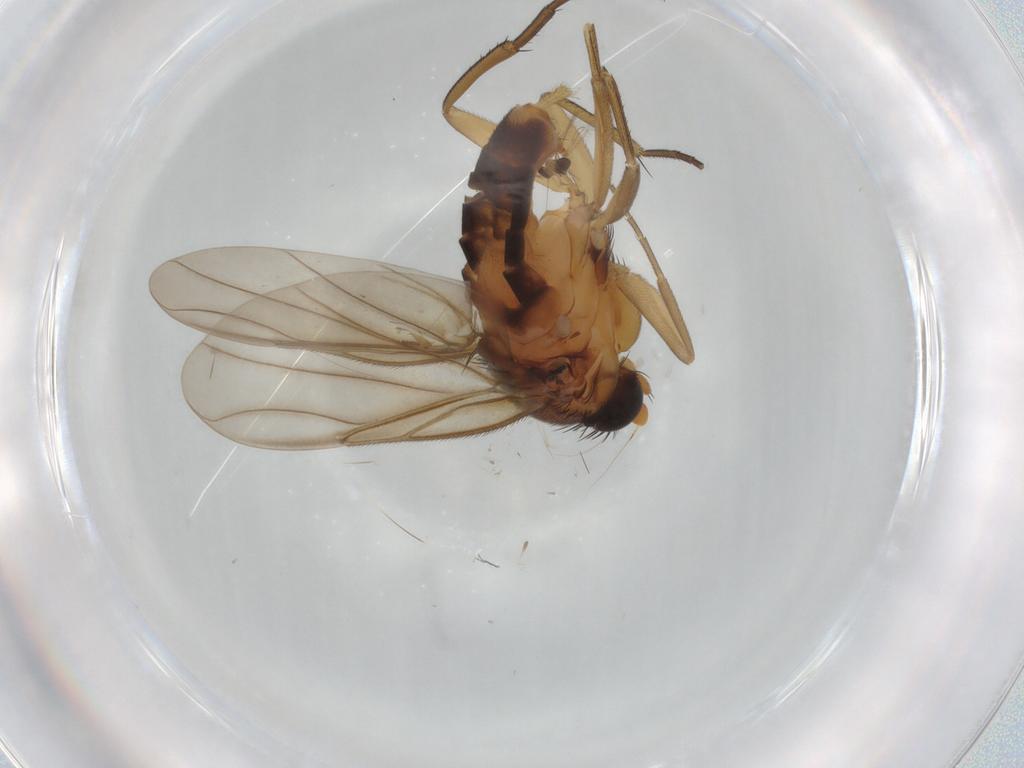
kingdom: Animalia
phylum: Arthropoda
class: Insecta
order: Diptera
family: Phoridae
